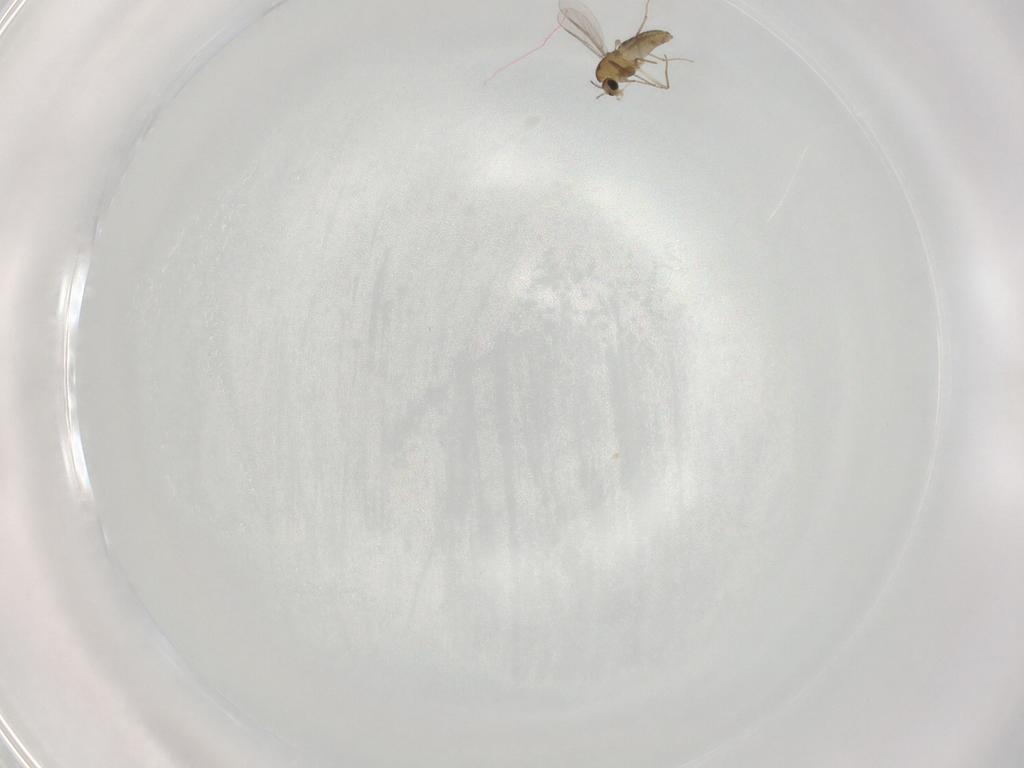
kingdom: Animalia
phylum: Arthropoda
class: Insecta
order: Diptera
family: Chironomidae
